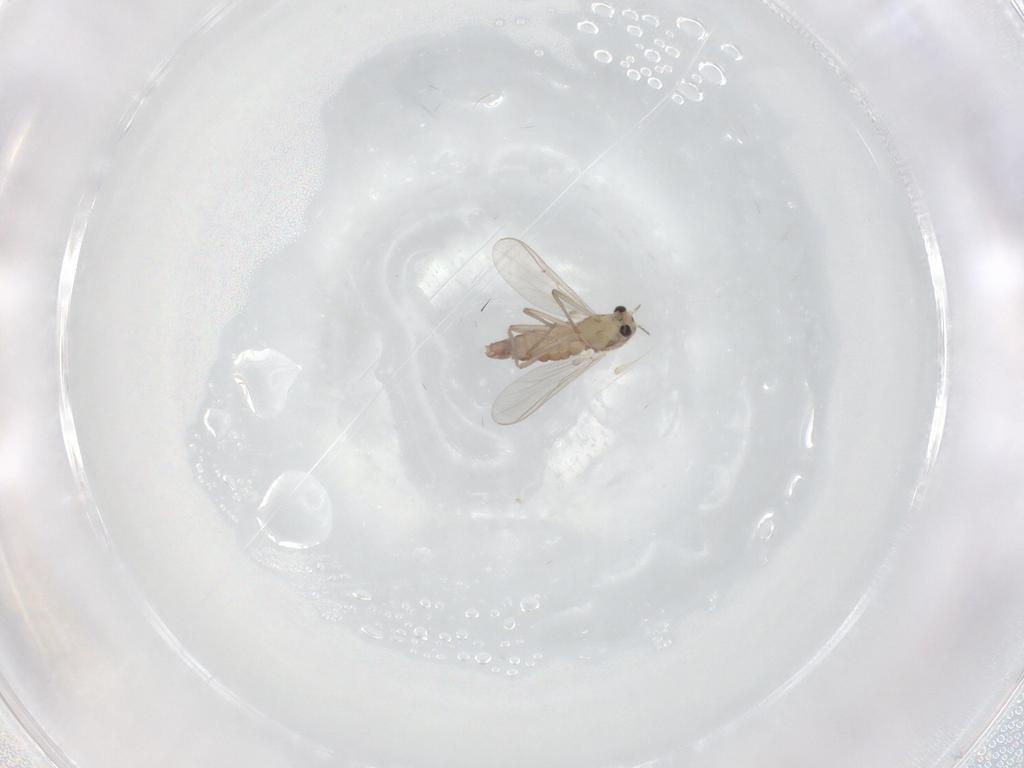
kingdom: Animalia
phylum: Arthropoda
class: Insecta
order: Diptera
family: Chironomidae
